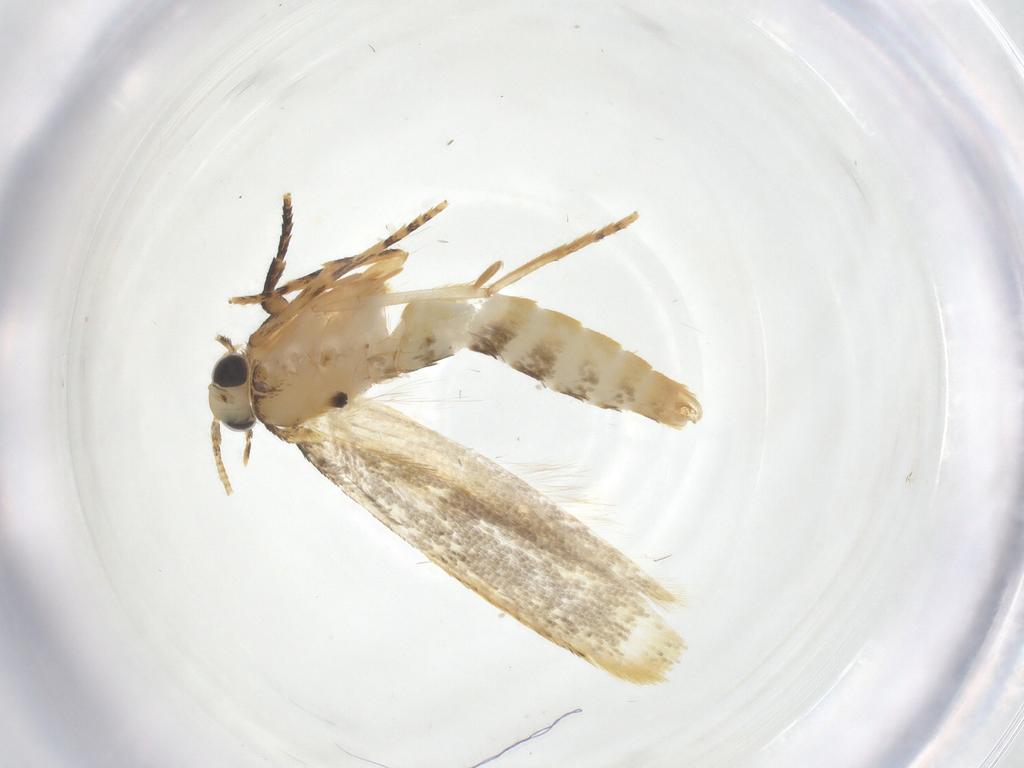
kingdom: Animalia
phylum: Arthropoda
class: Insecta
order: Lepidoptera
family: Tineidae
